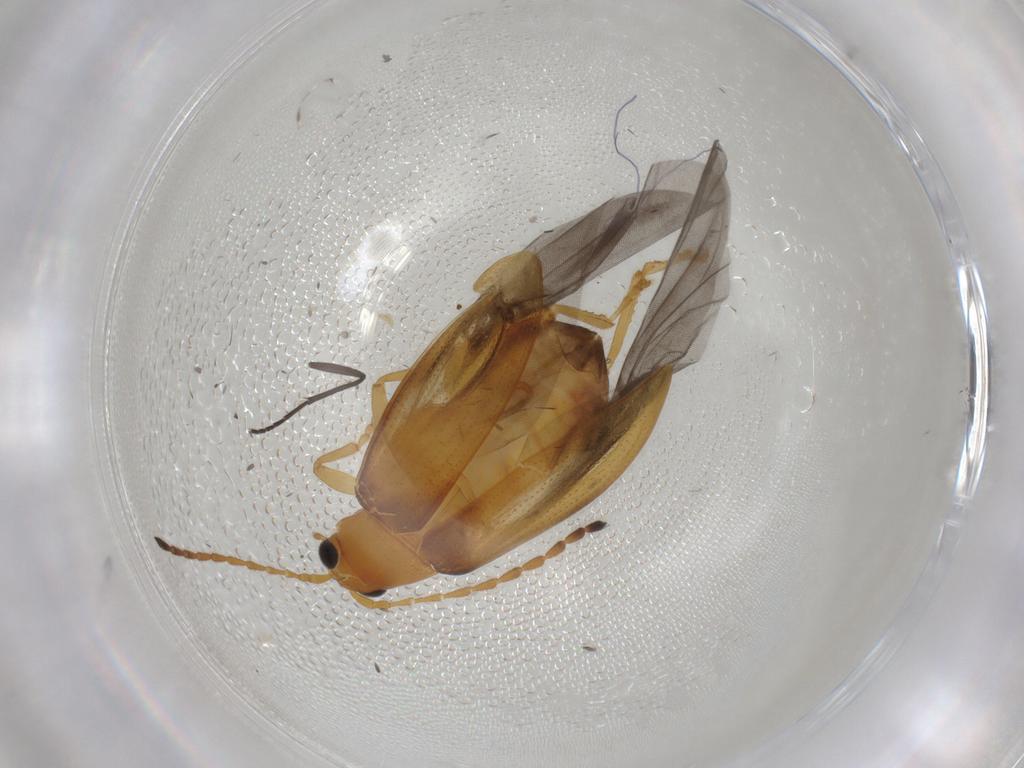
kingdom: Animalia
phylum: Arthropoda
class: Insecta
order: Coleoptera
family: Chrysomelidae
